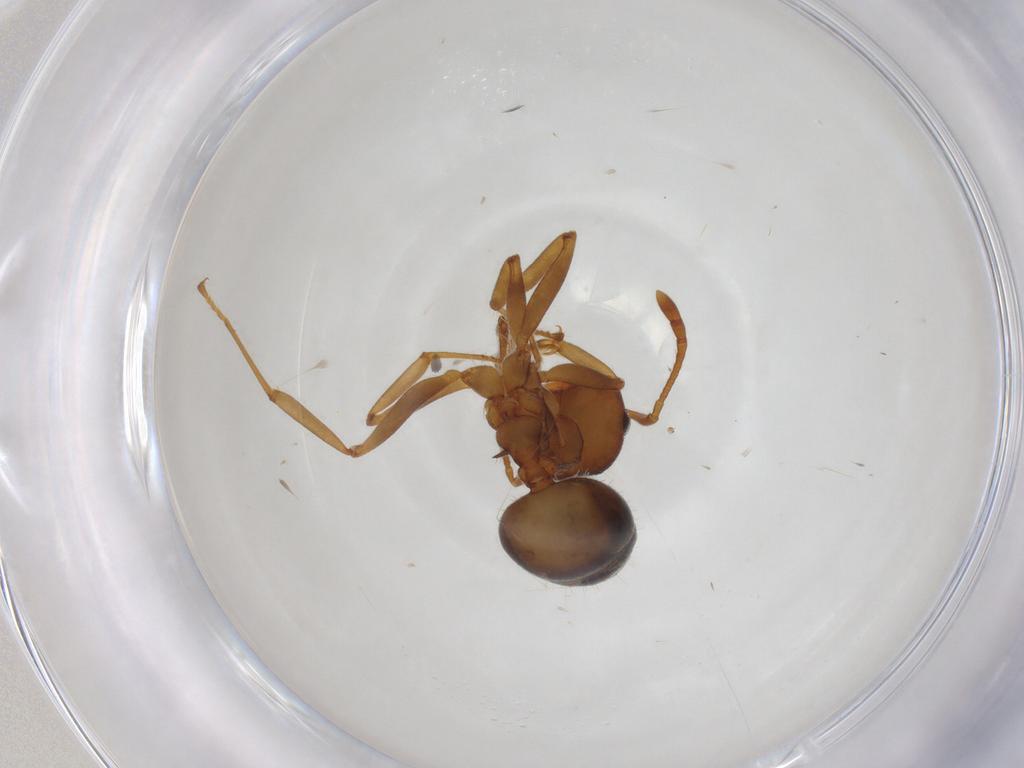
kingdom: Animalia
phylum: Arthropoda
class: Insecta
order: Hymenoptera
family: Formicidae
